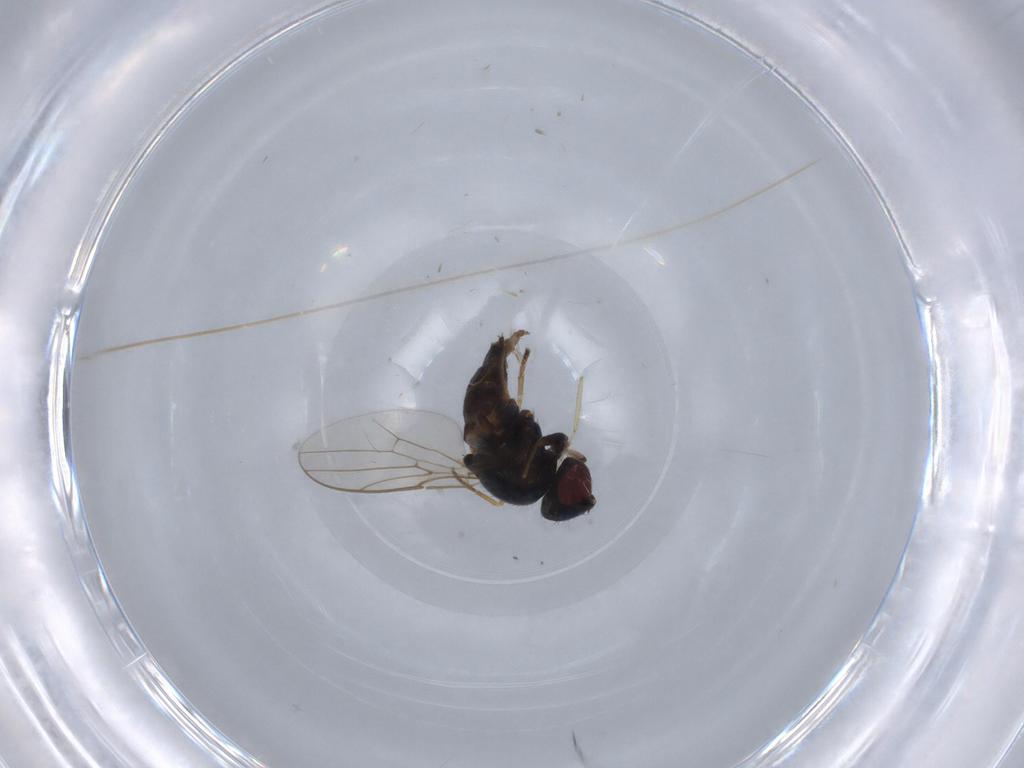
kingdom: Animalia
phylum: Arthropoda
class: Insecta
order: Diptera
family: Chloropidae
